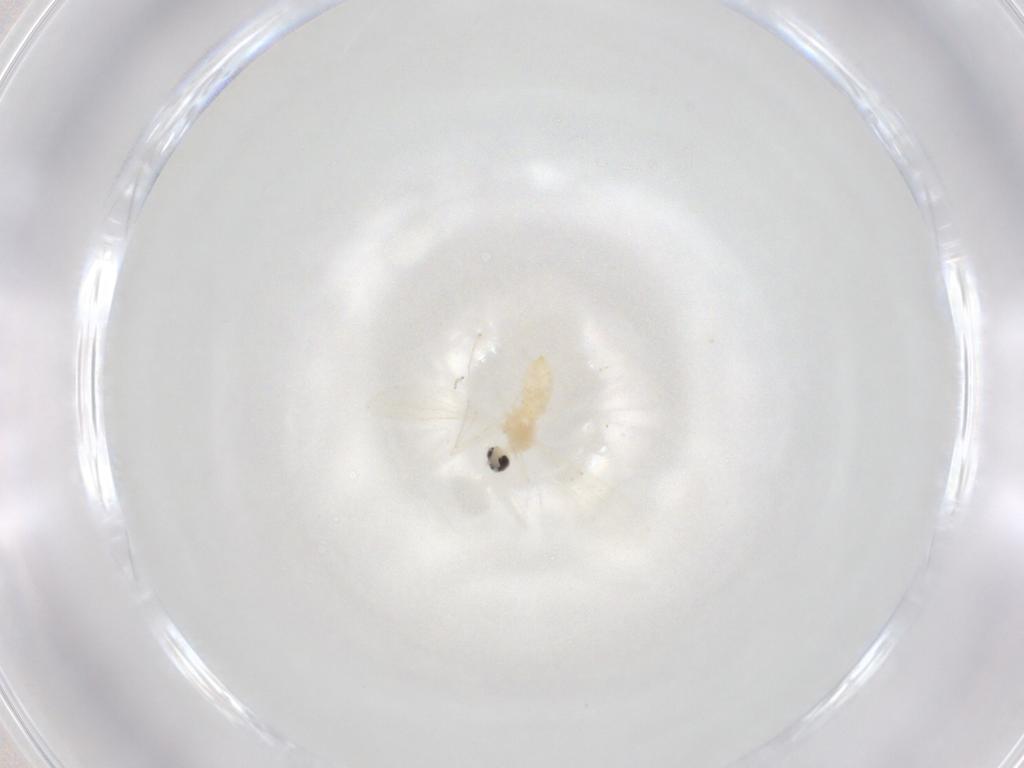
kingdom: Animalia
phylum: Arthropoda
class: Insecta
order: Diptera
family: Cecidomyiidae
